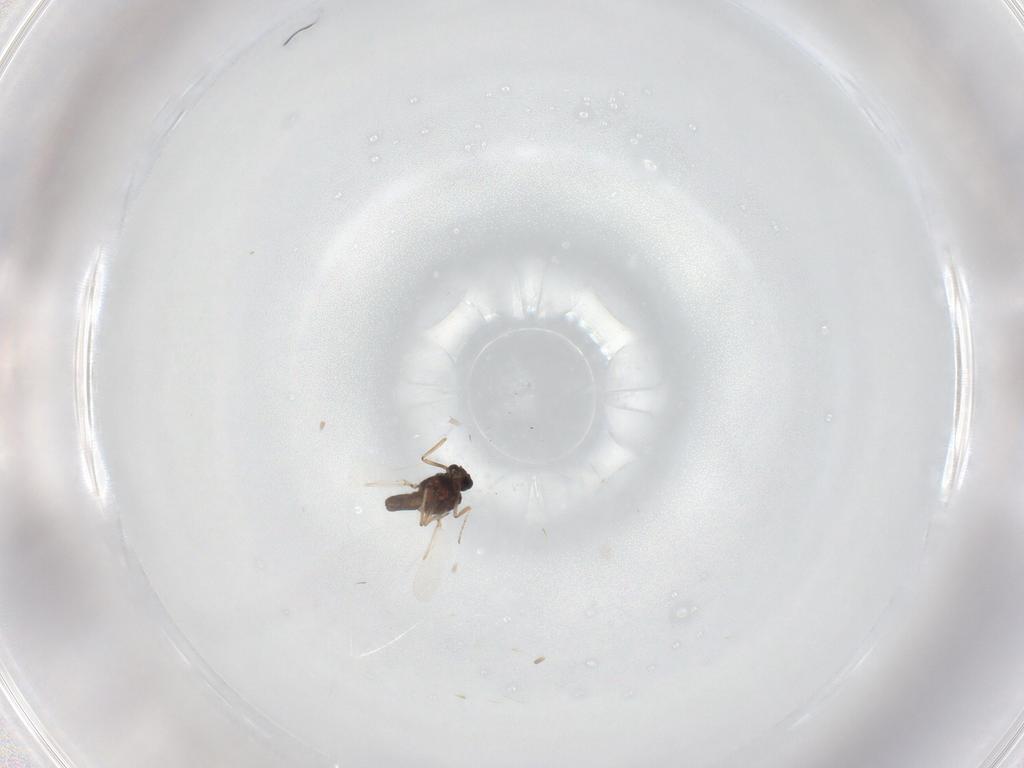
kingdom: Animalia
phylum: Arthropoda
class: Insecta
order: Diptera
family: Ceratopogonidae
